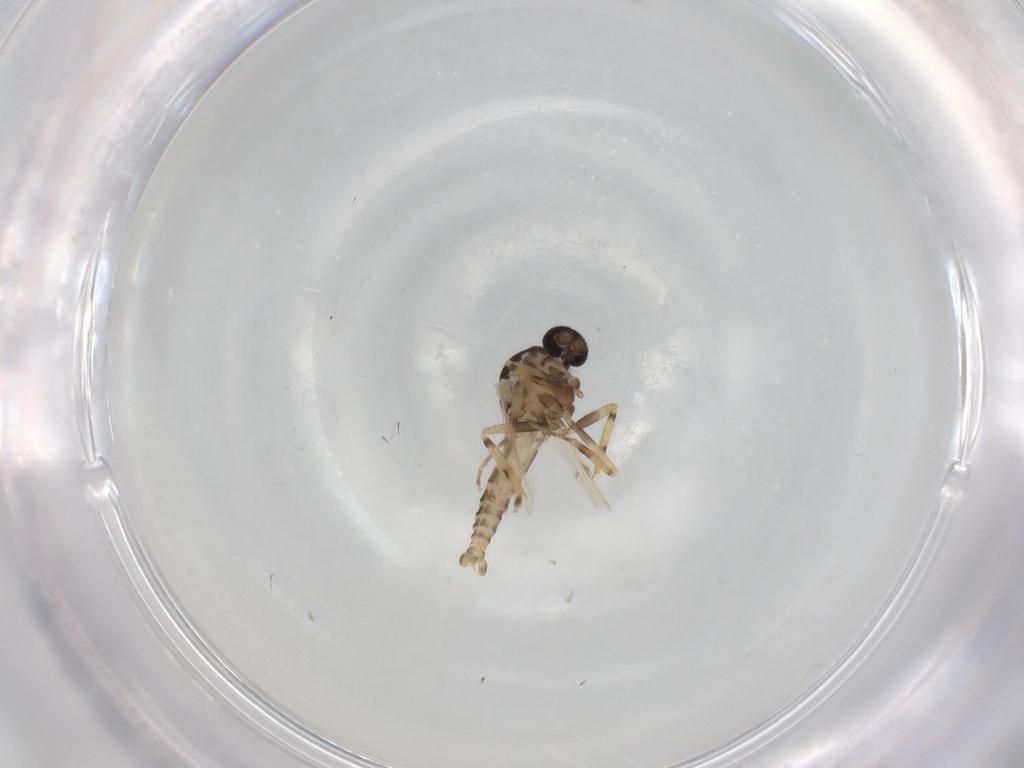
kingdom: Animalia
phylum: Arthropoda
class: Insecta
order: Diptera
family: Ceratopogonidae
